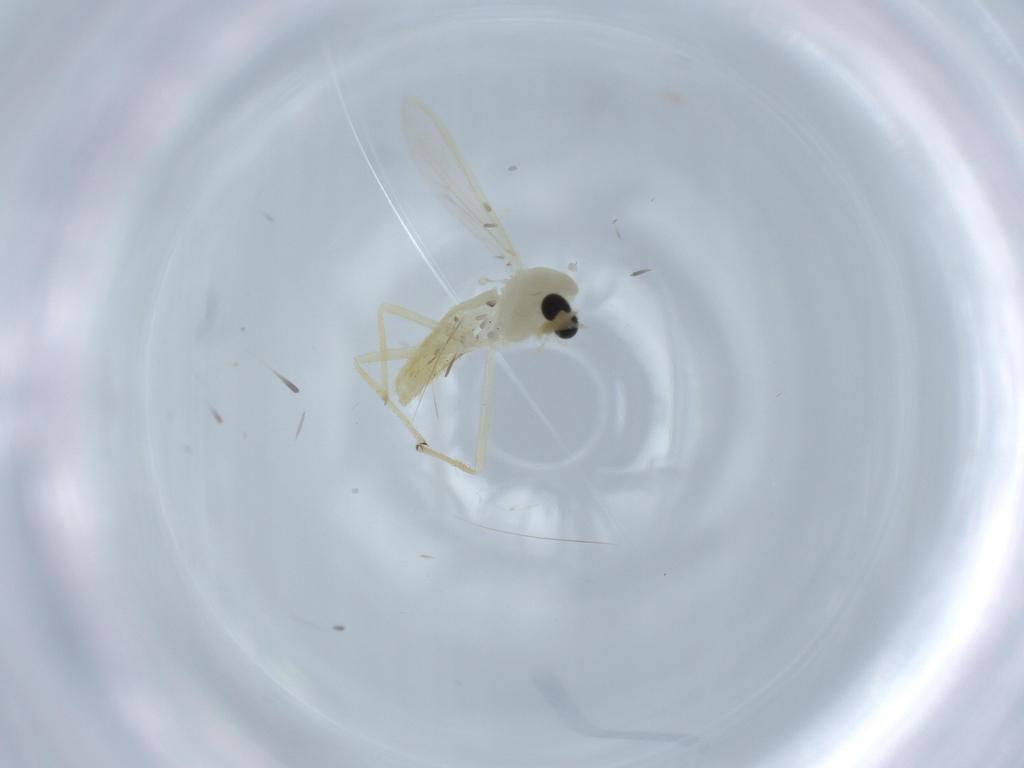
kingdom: Animalia
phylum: Arthropoda
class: Insecta
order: Diptera
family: Chironomidae
